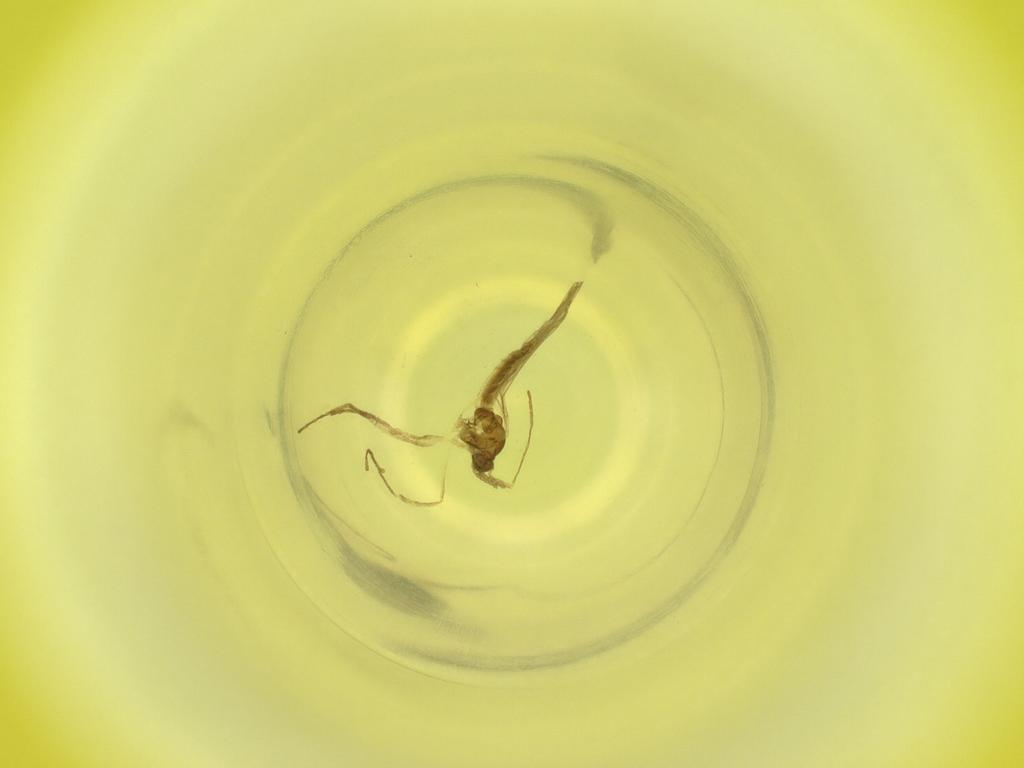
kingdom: Animalia
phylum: Arthropoda
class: Insecta
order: Diptera
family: Cecidomyiidae
